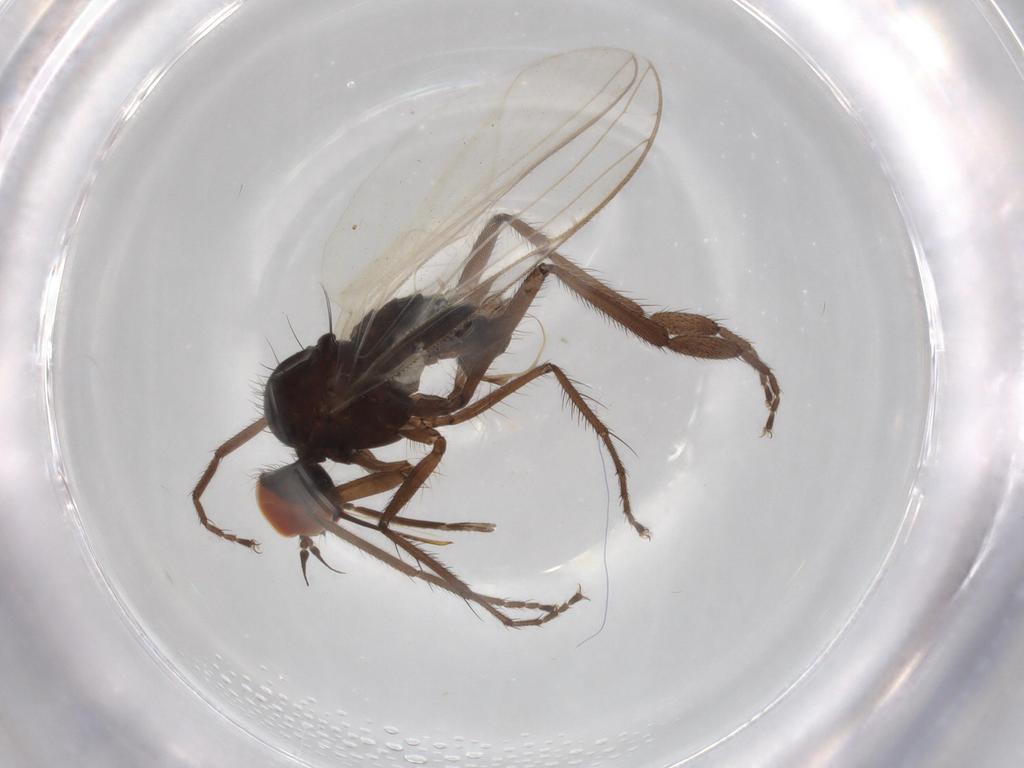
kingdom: Animalia
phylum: Arthropoda
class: Insecta
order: Diptera
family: Empididae
